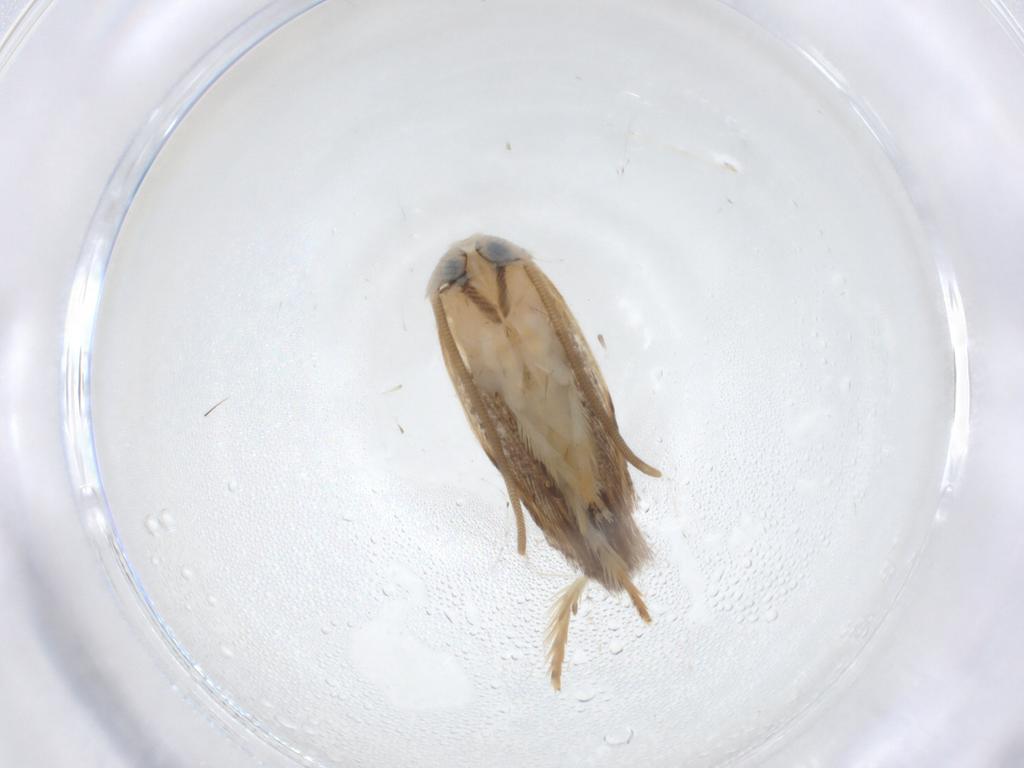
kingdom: Animalia
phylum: Arthropoda
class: Insecta
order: Lepidoptera
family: Opostegidae
